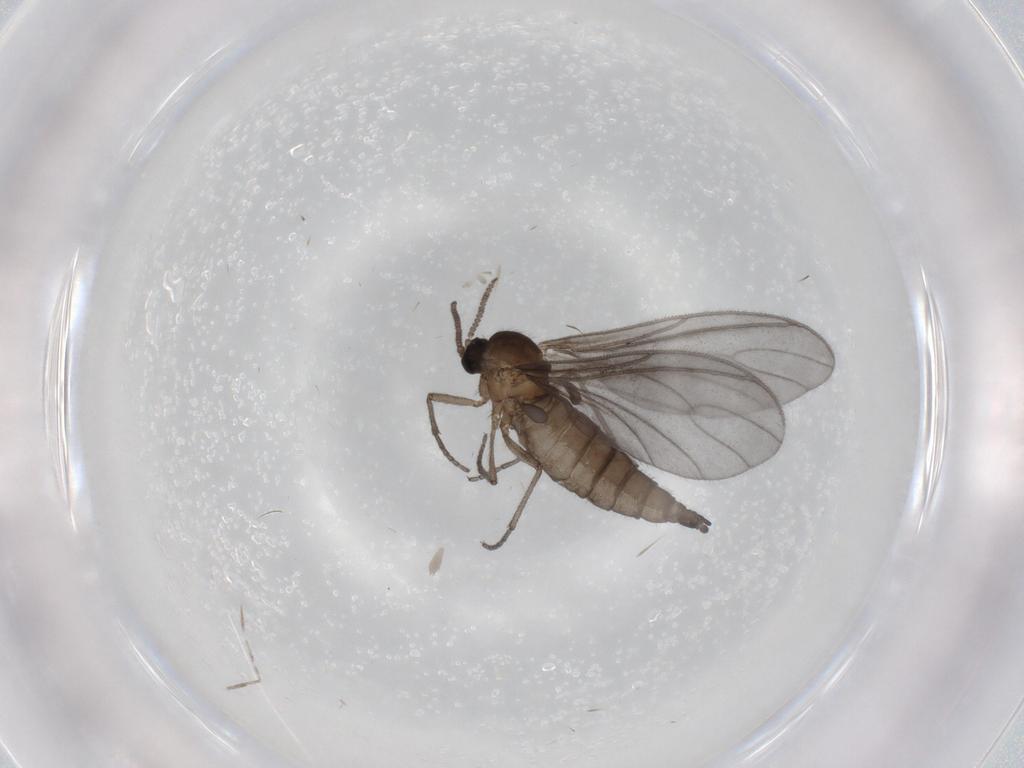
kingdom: Animalia
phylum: Arthropoda
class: Insecta
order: Diptera
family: Sciaridae
